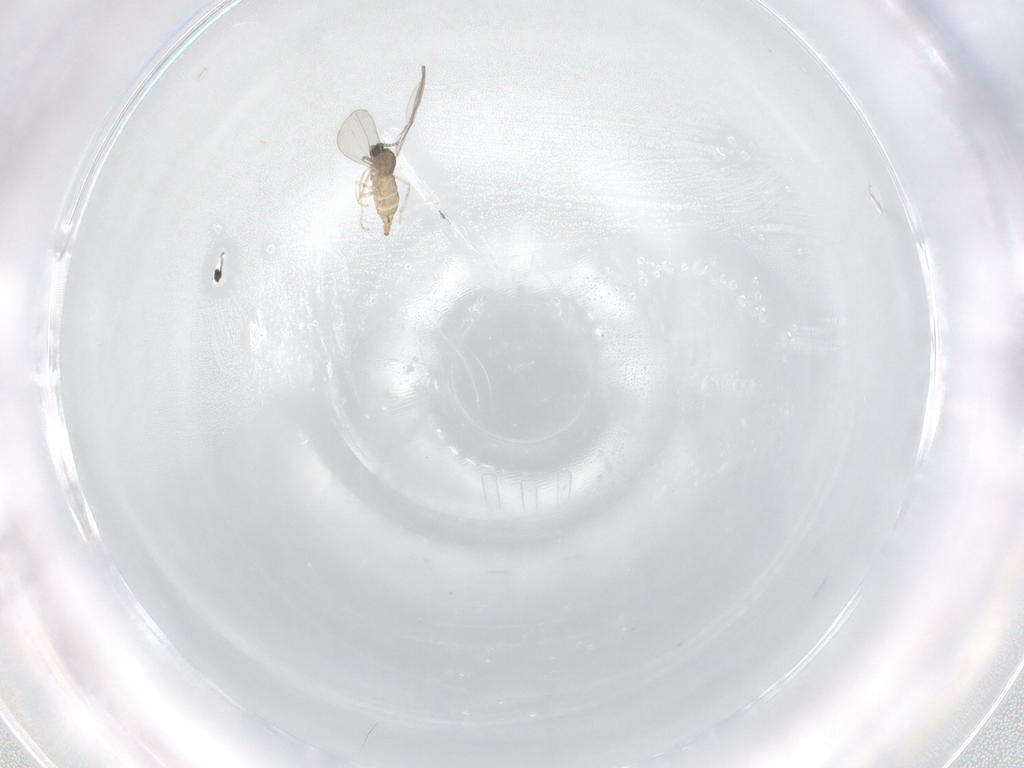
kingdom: Animalia
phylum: Arthropoda
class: Insecta
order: Diptera
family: Cecidomyiidae
